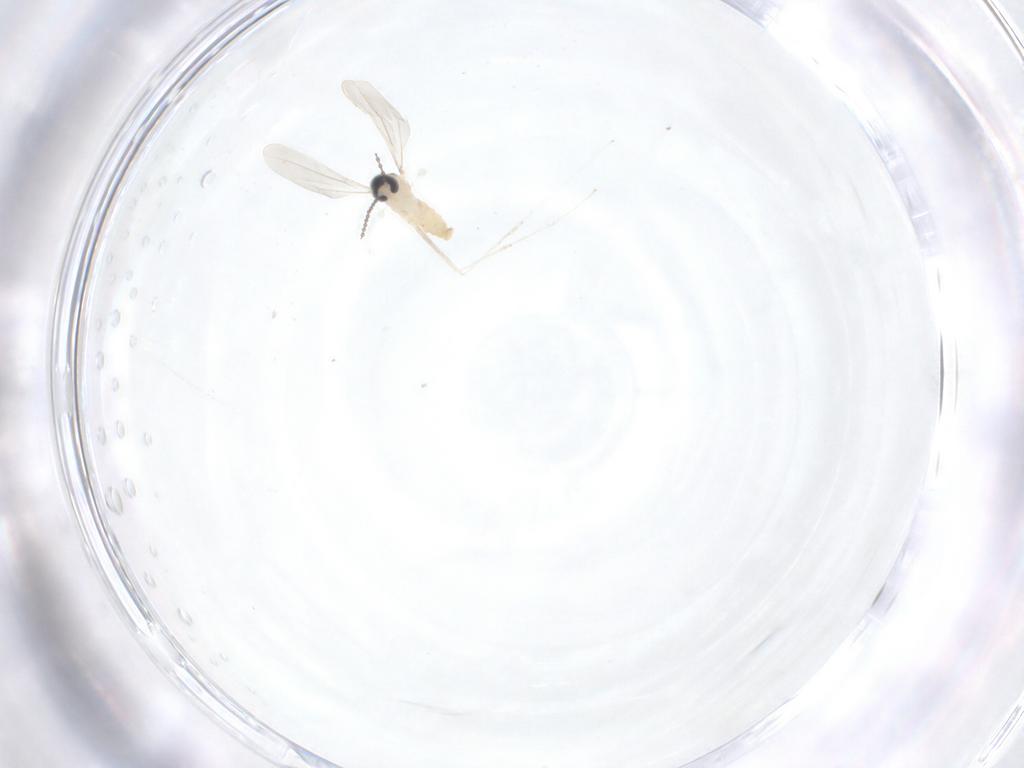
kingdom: Animalia
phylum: Arthropoda
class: Insecta
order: Diptera
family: Cecidomyiidae
